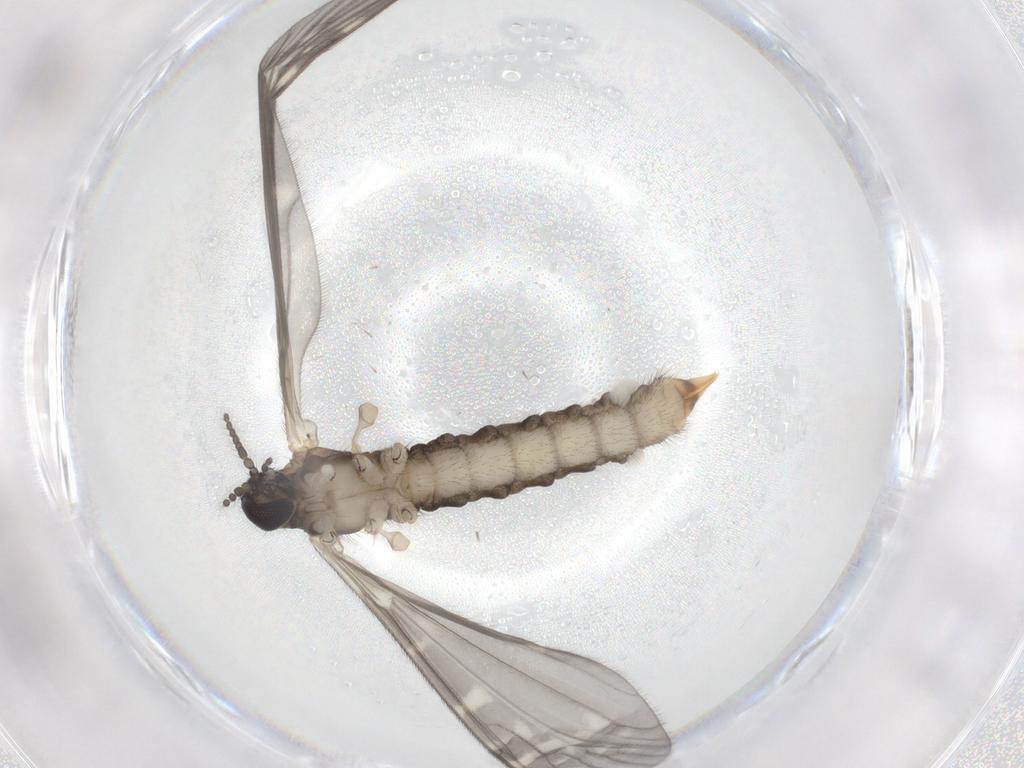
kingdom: Animalia
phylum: Arthropoda
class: Insecta
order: Diptera
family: Limoniidae
